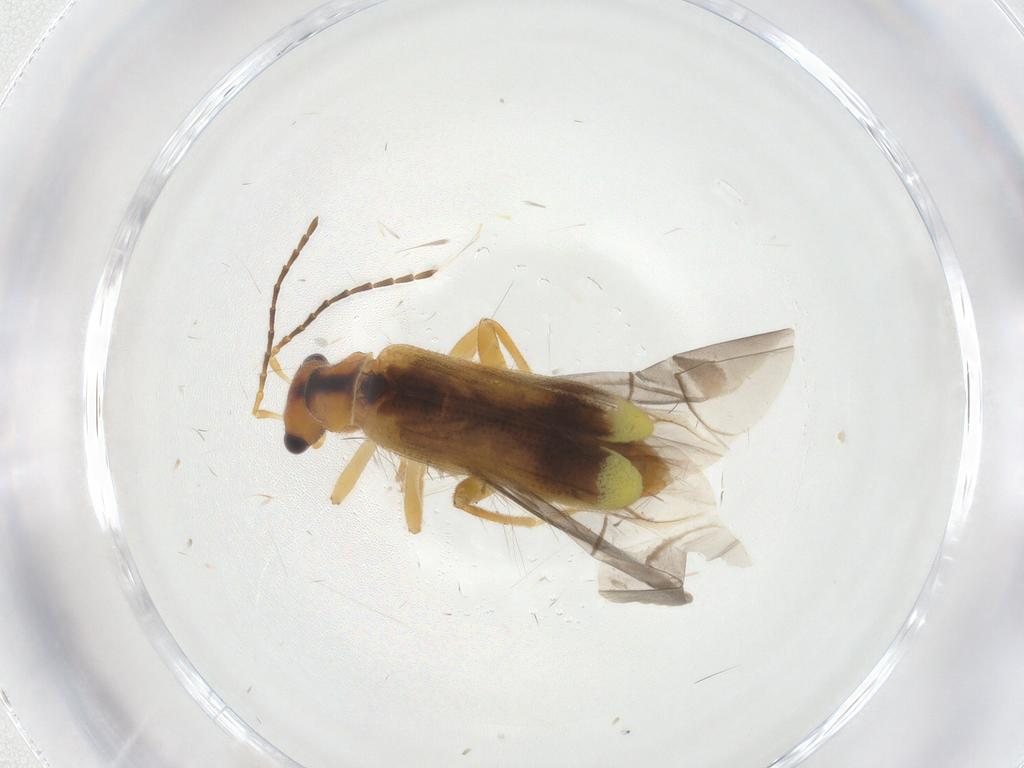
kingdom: Animalia
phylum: Arthropoda
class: Insecta
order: Coleoptera
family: Cantharidae
